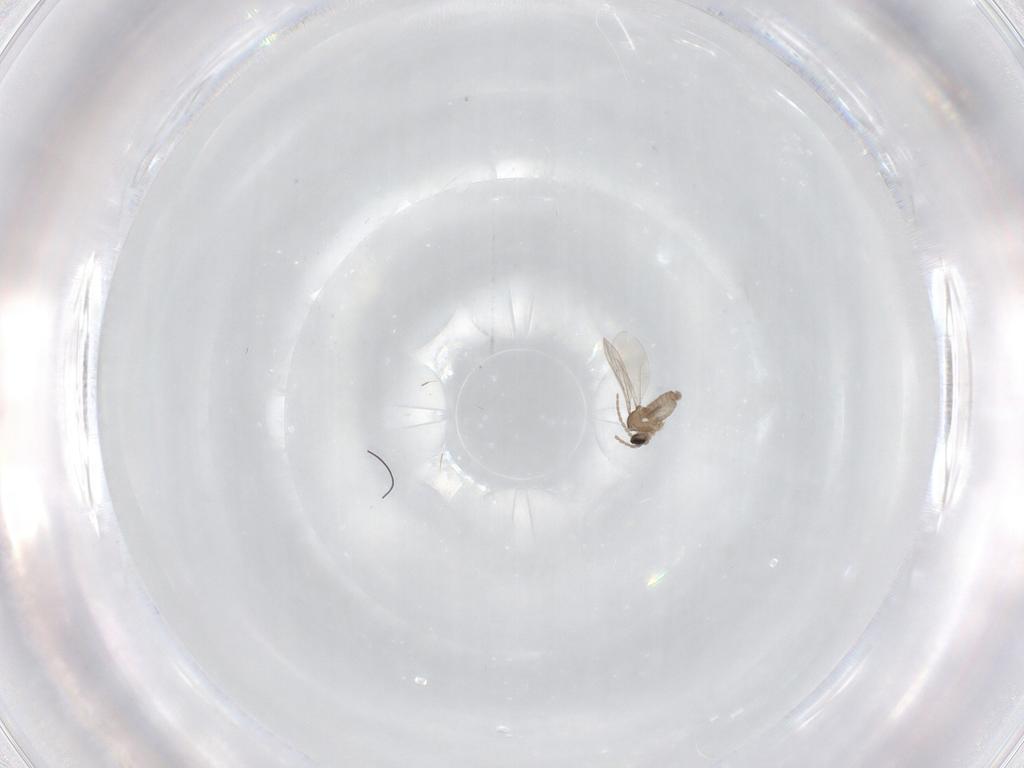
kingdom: Animalia
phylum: Arthropoda
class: Insecta
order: Diptera
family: Cecidomyiidae
